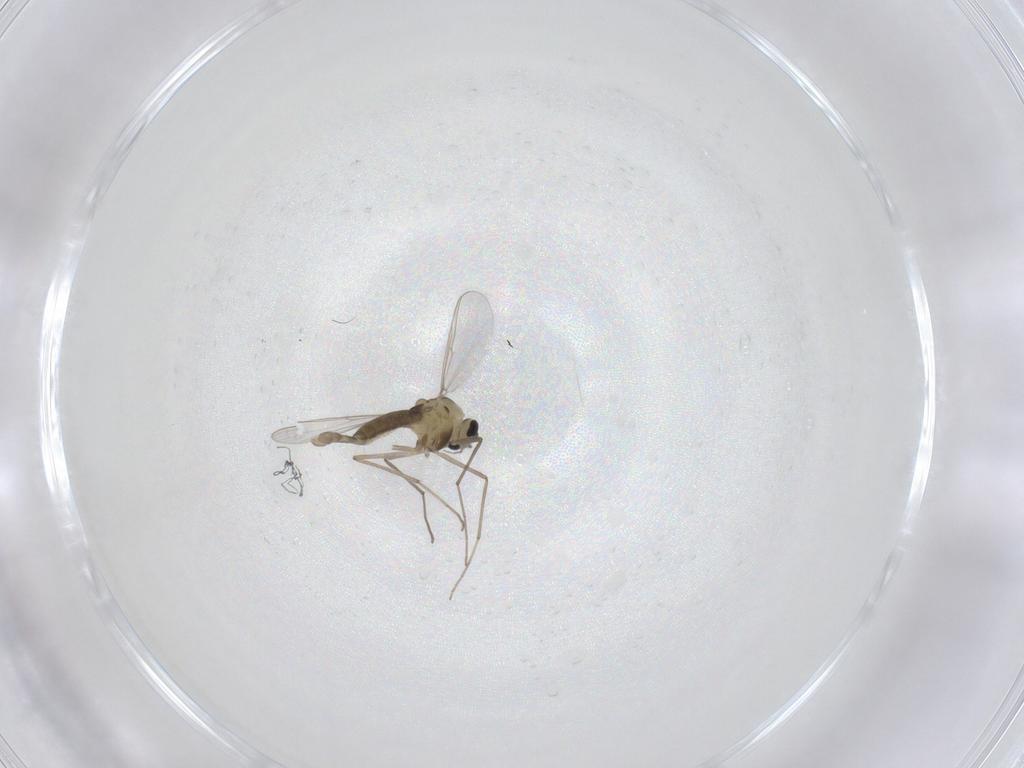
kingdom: Animalia
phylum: Arthropoda
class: Insecta
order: Diptera
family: Chironomidae
